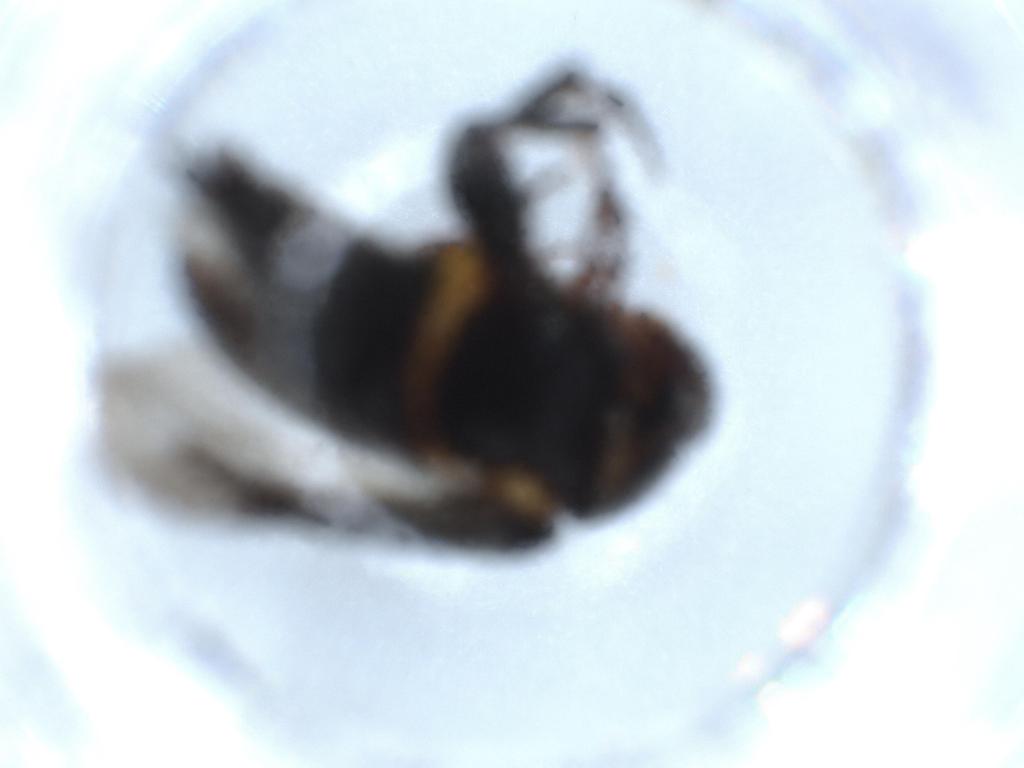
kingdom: Animalia
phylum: Arthropoda
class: Insecta
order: Coleoptera
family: Mordellidae
